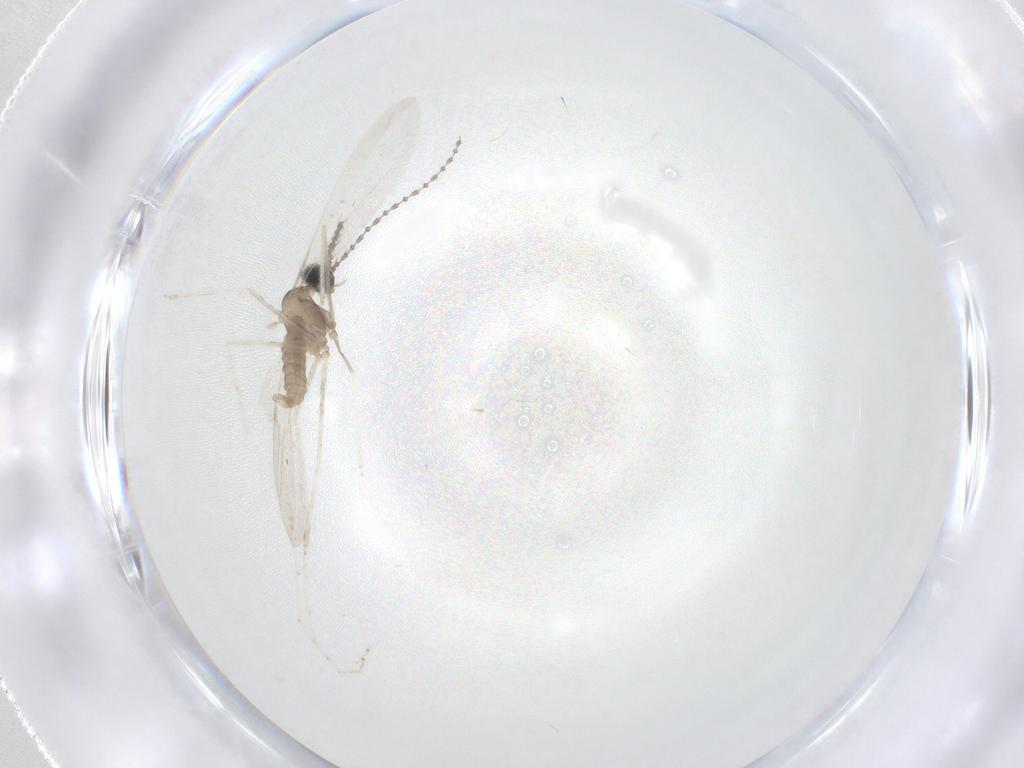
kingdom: Animalia
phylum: Arthropoda
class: Insecta
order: Diptera
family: Cecidomyiidae
